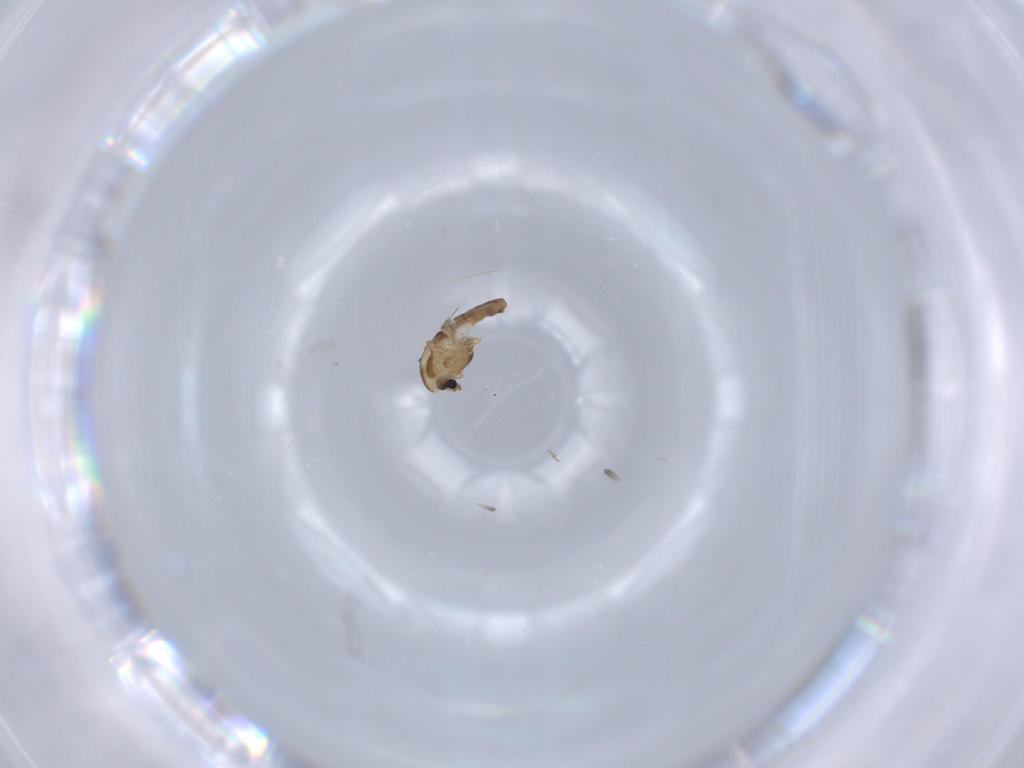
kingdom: Animalia
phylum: Arthropoda
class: Insecta
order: Diptera
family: Chironomidae
